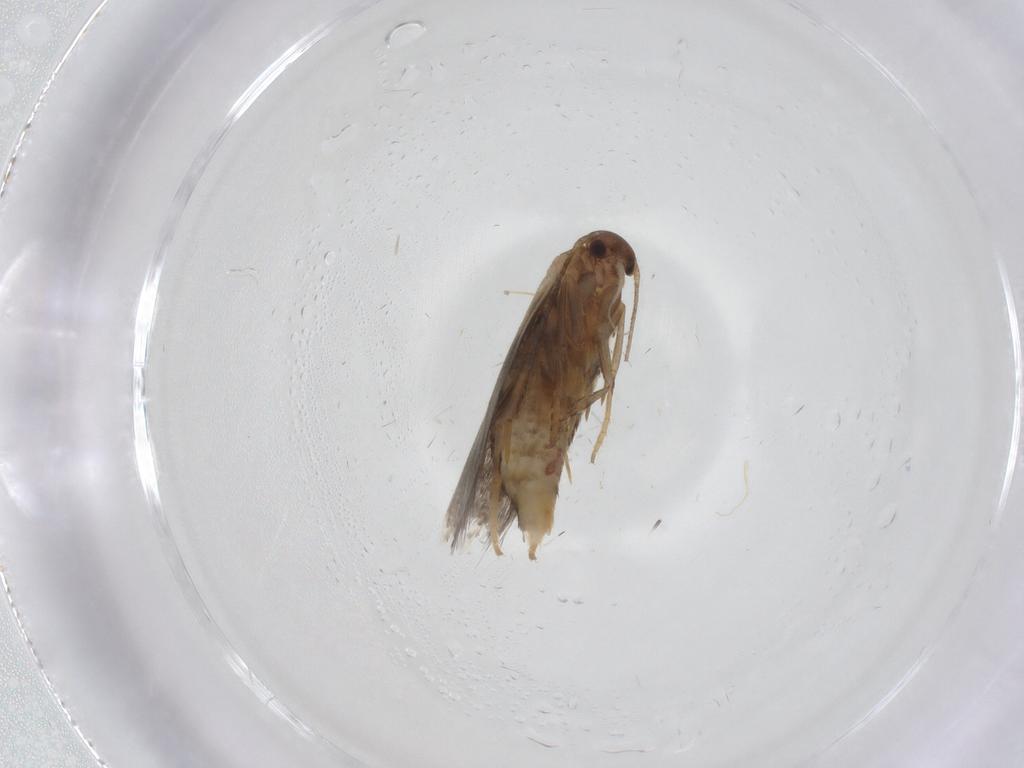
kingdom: Animalia
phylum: Arthropoda
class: Insecta
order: Lepidoptera
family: Elachistidae
